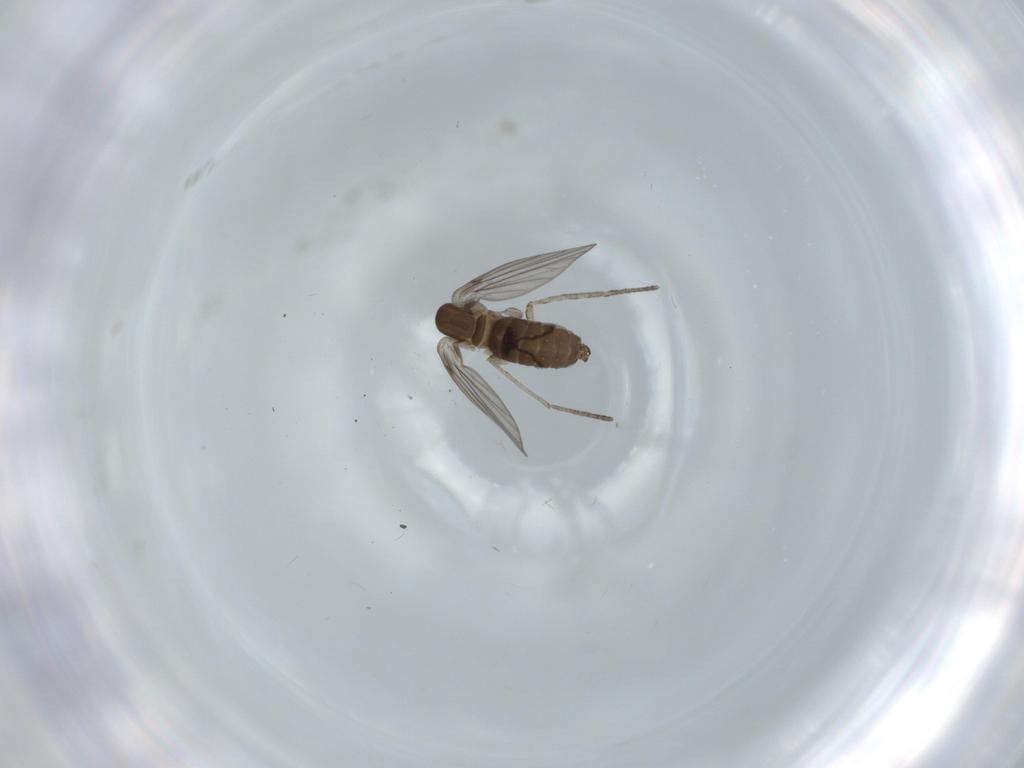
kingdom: Animalia
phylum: Arthropoda
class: Insecta
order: Diptera
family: Psychodidae
